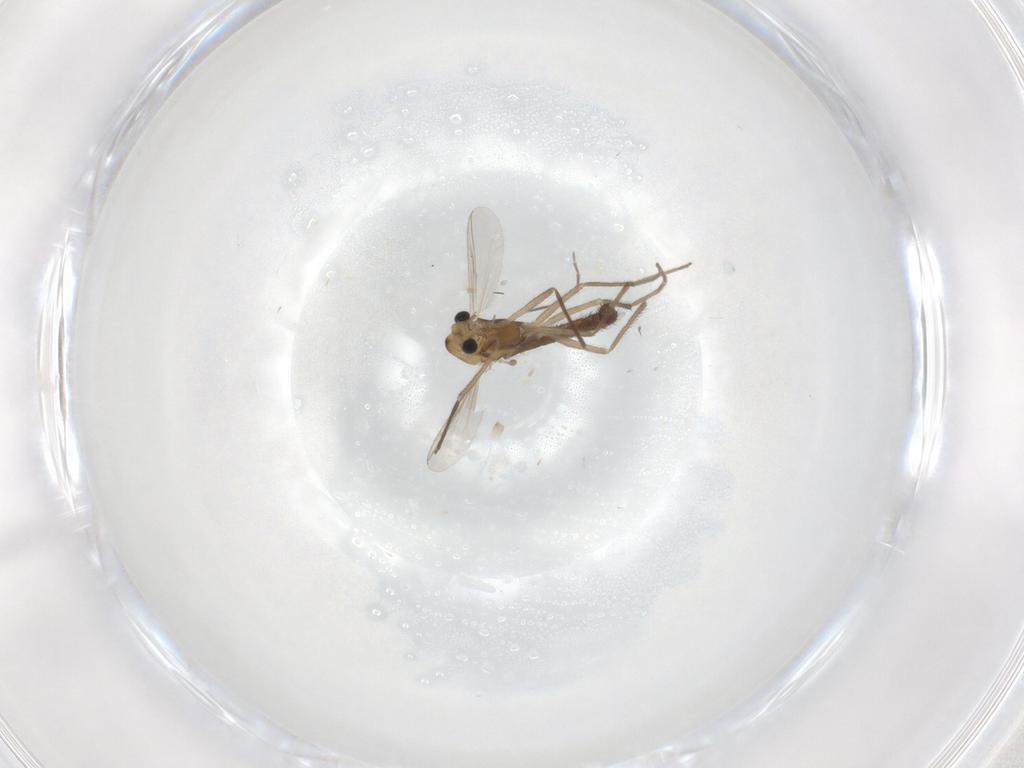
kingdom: Animalia
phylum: Arthropoda
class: Insecta
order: Diptera
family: Chironomidae
